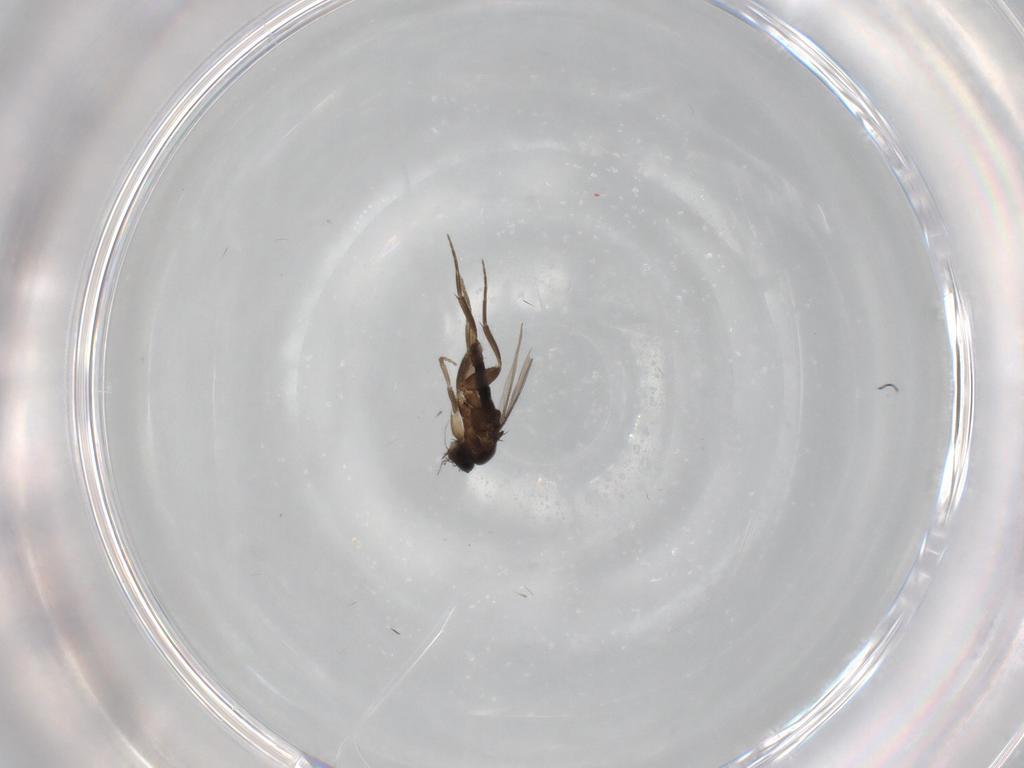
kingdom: Animalia
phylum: Arthropoda
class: Insecta
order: Diptera
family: Phoridae
